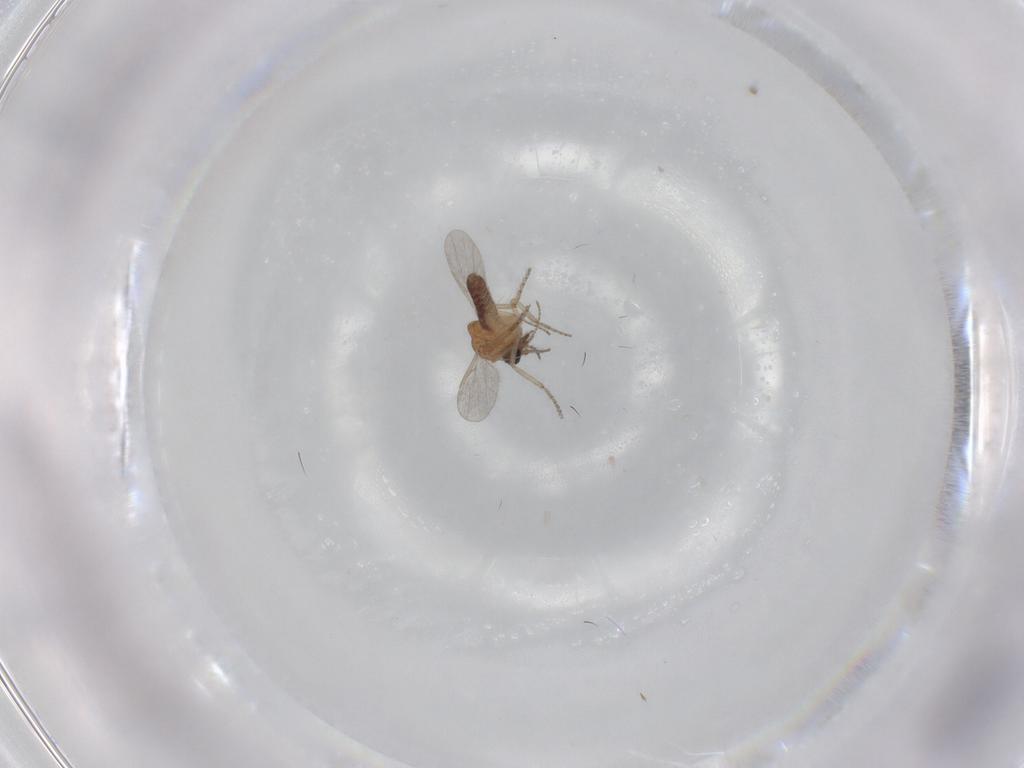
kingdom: Animalia
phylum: Arthropoda
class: Insecta
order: Diptera
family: Ceratopogonidae
